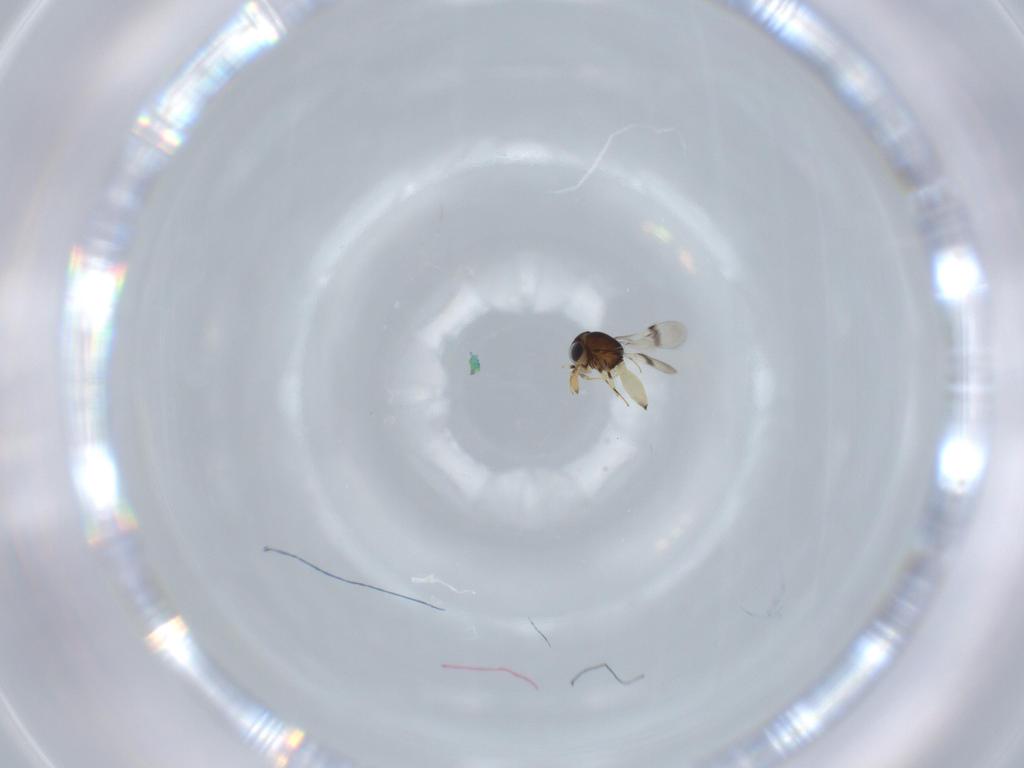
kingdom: Animalia
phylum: Arthropoda
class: Insecta
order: Hymenoptera
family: Scelionidae
